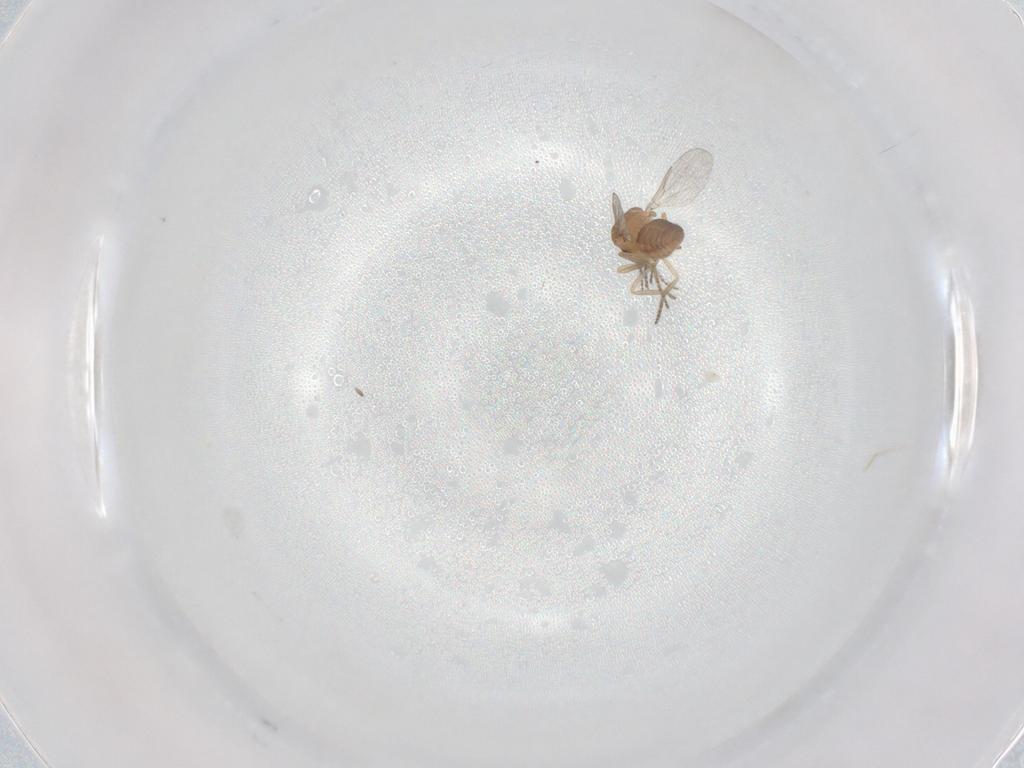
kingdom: Animalia
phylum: Arthropoda
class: Insecta
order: Diptera
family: Ceratopogonidae
